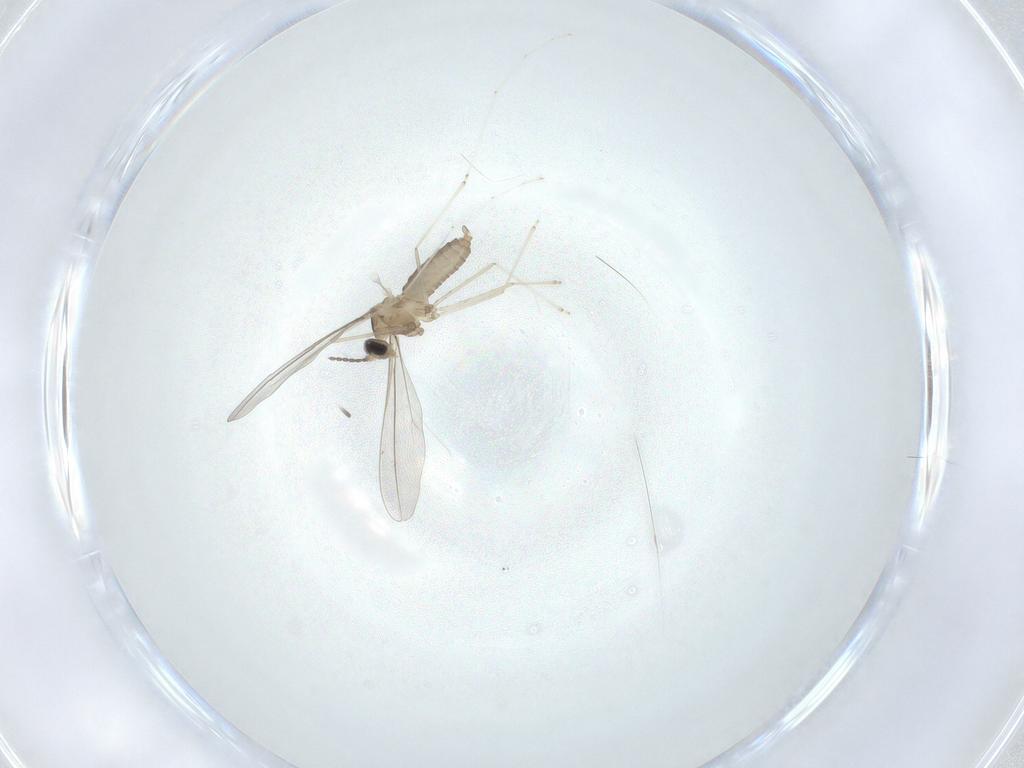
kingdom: Animalia
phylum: Arthropoda
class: Insecta
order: Diptera
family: Cecidomyiidae
